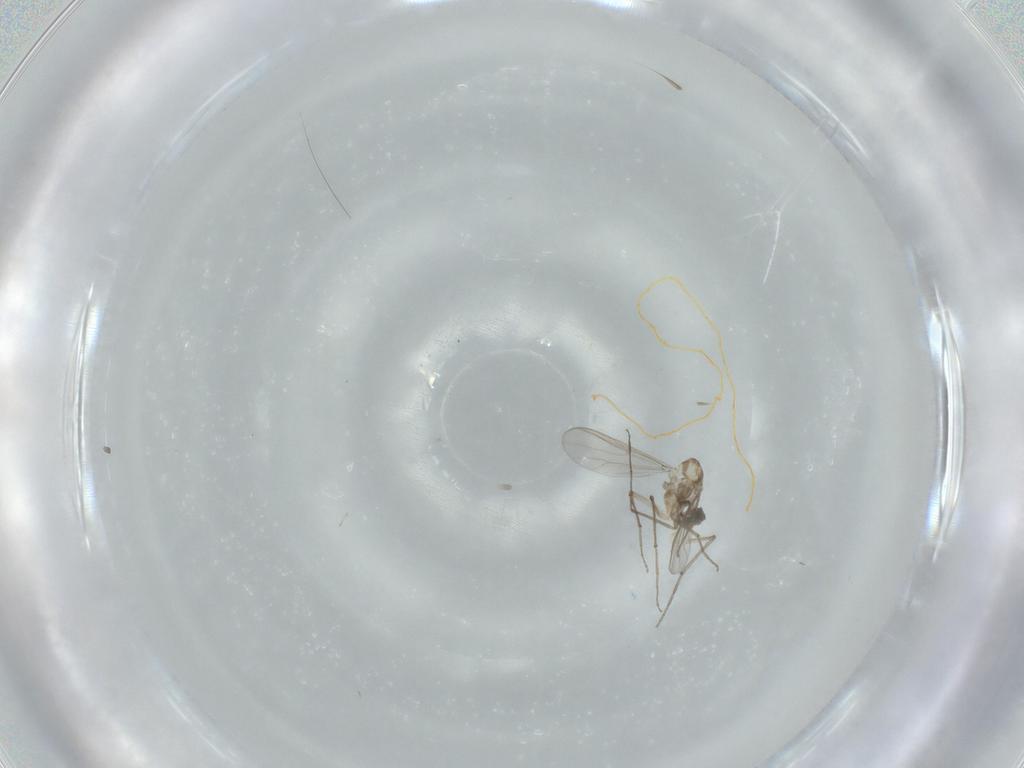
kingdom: Animalia
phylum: Arthropoda
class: Insecta
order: Diptera
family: Chironomidae
